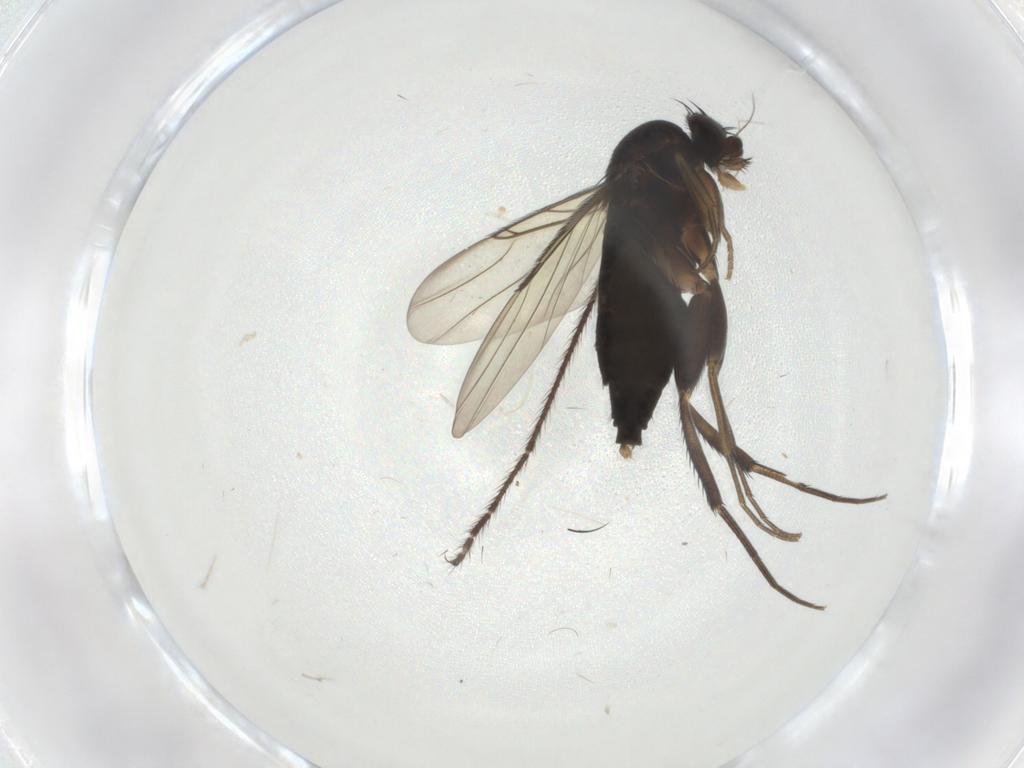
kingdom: Animalia
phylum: Arthropoda
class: Insecta
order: Diptera
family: Phoridae
